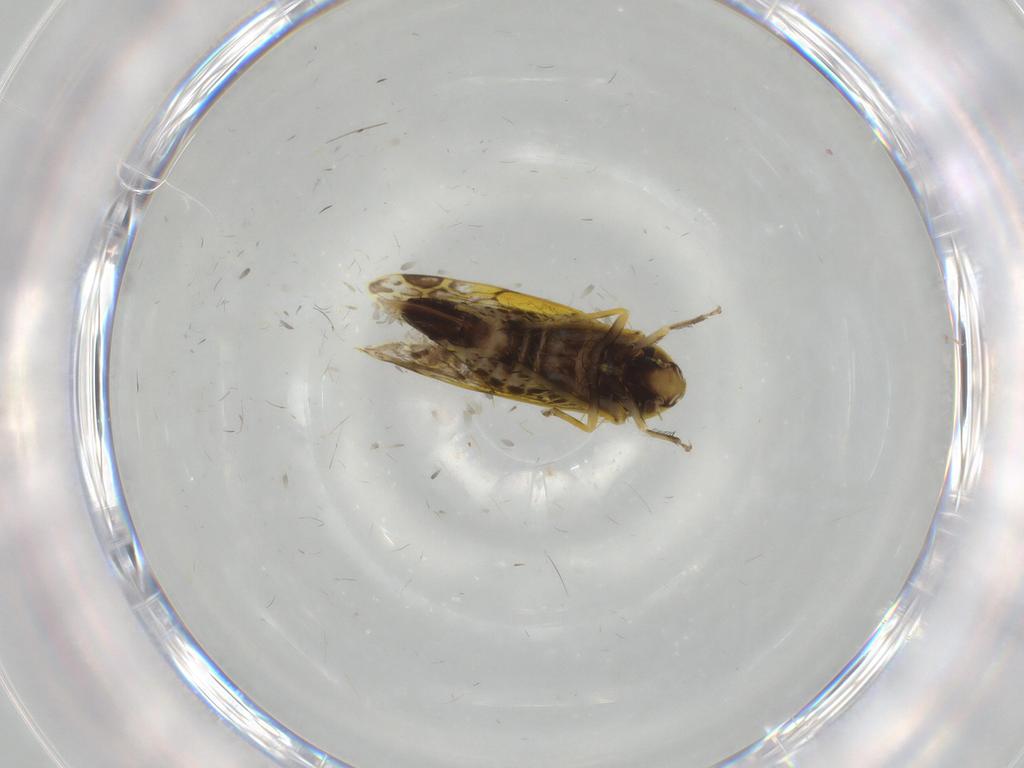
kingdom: Animalia
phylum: Arthropoda
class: Insecta
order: Hemiptera
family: Cicadellidae
